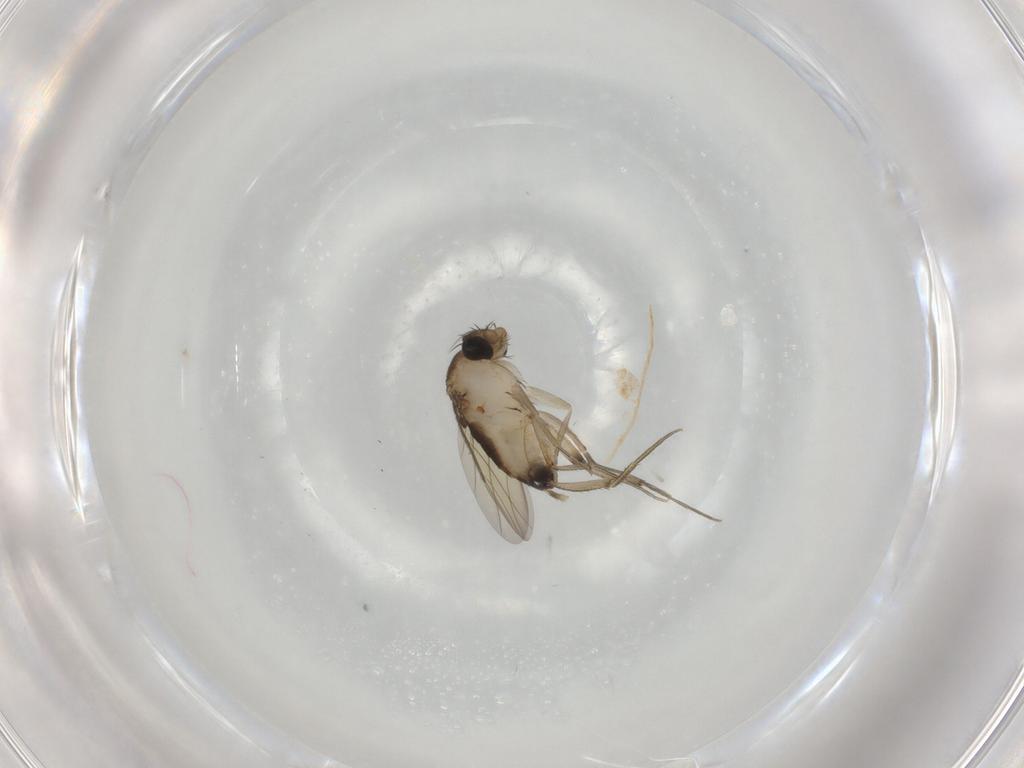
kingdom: Animalia
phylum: Arthropoda
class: Insecta
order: Diptera
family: Phoridae
